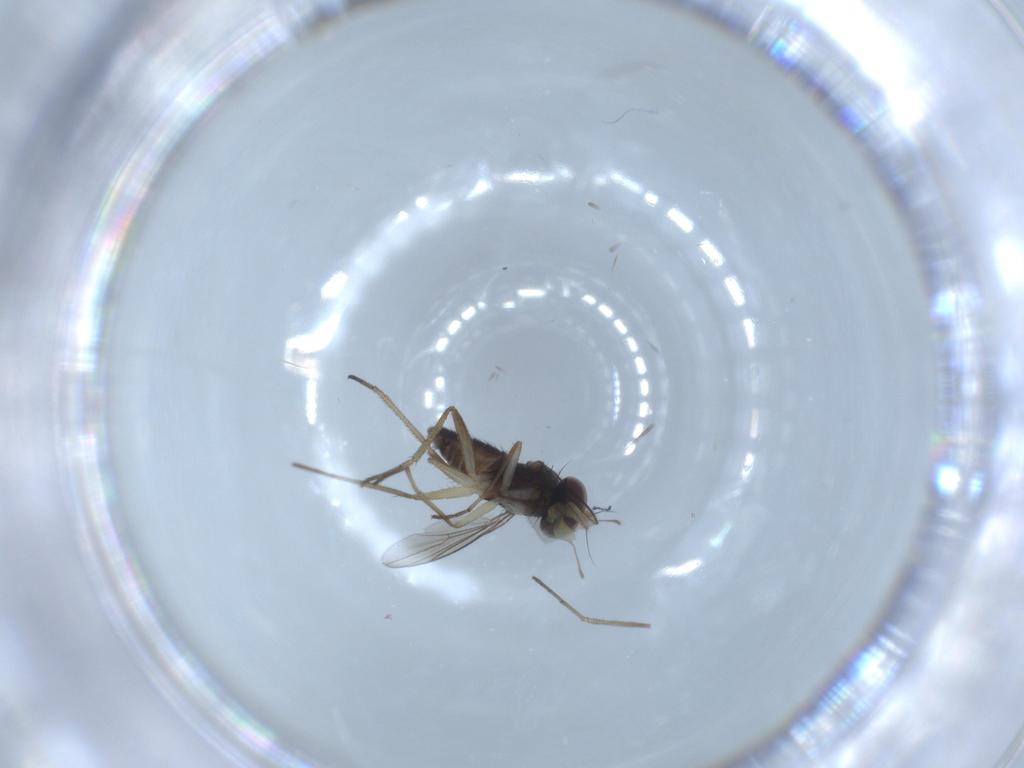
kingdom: Animalia
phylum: Arthropoda
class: Insecta
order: Diptera
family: Dolichopodidae
